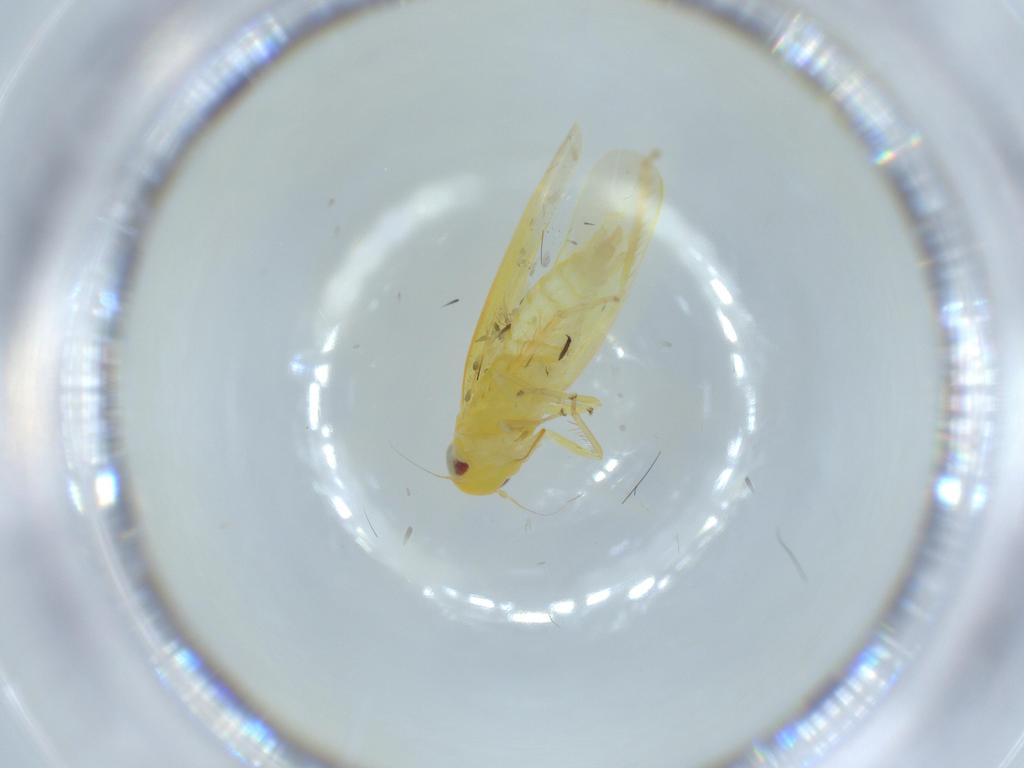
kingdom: Animalia
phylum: Arthropoda
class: Insecta
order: Hemiptera
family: Cicadellidae
